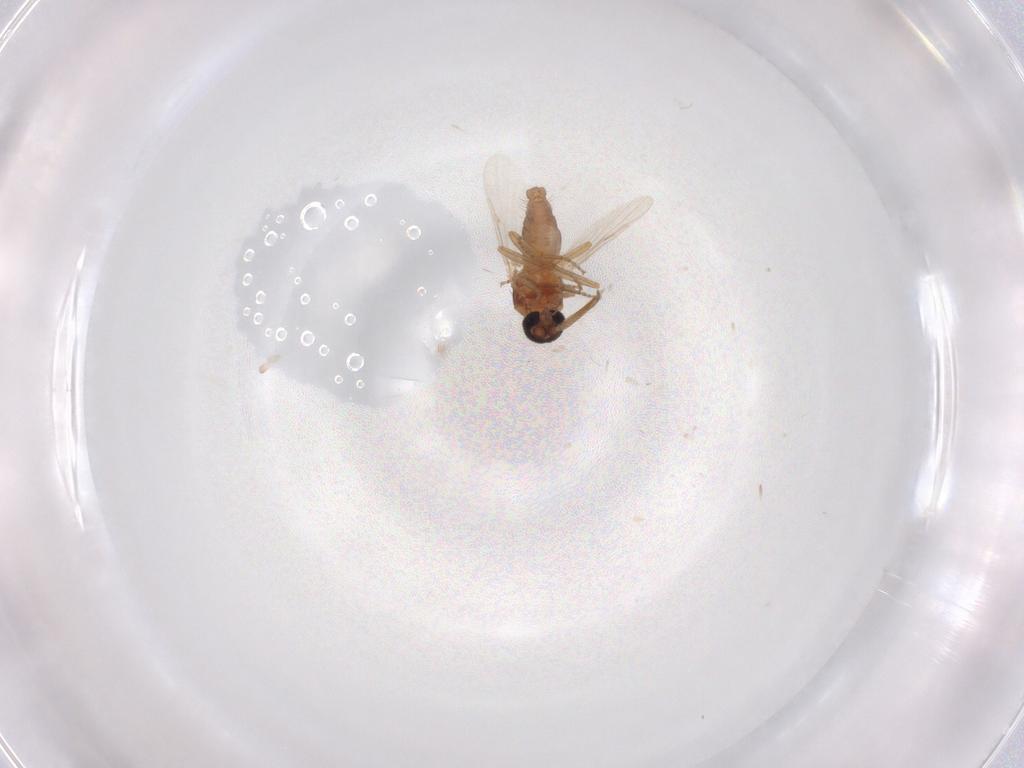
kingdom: Animalia
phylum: Arthropoda
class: Insecta
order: Diptera
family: Ceratopogonidae
